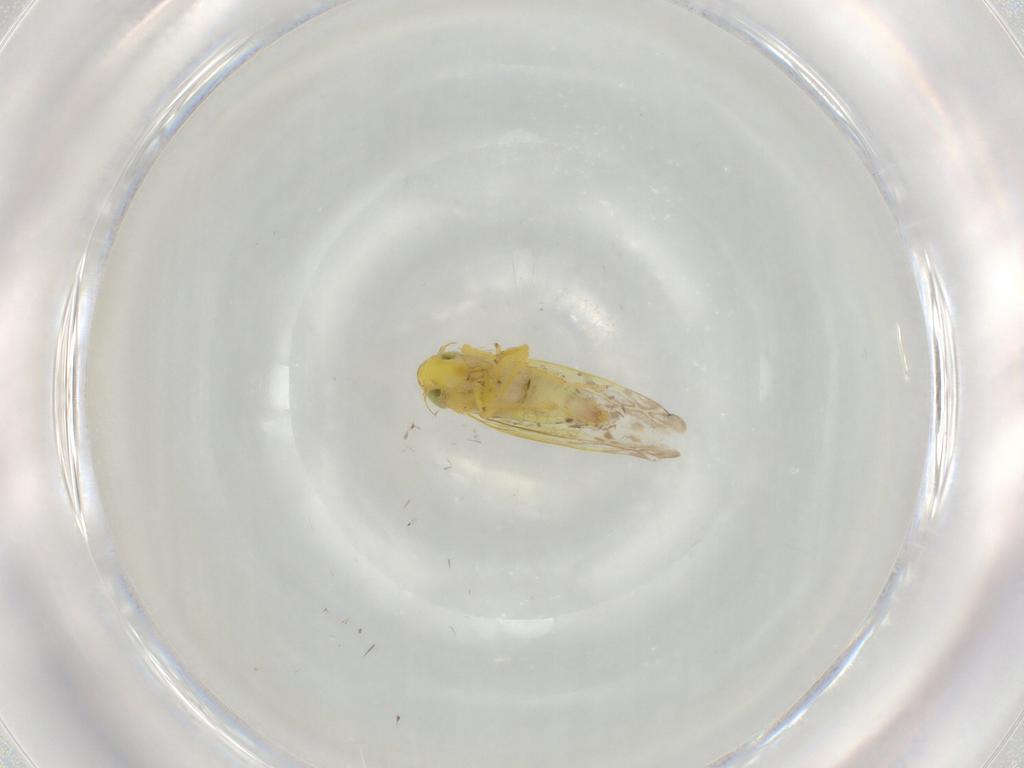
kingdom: Animalia
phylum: Arthropoda
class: Insecta
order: Hemiptera
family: Cicadellidae
